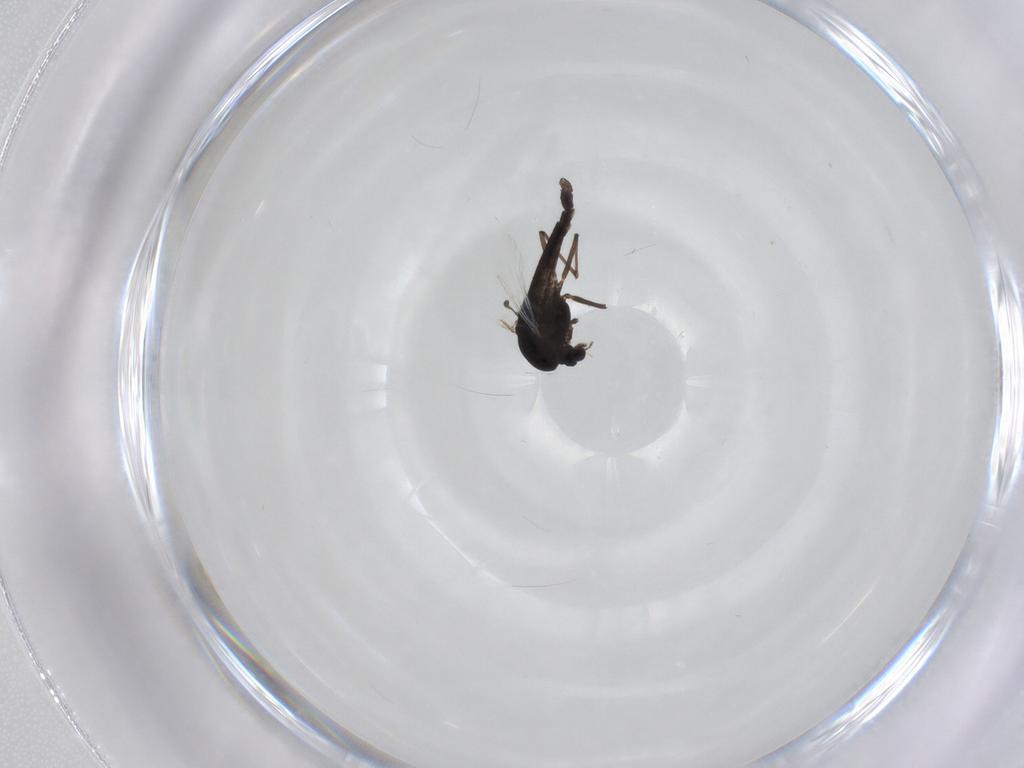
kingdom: Animalia
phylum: Arthropoda
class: Insecta
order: Diptera
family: Chironomidae
